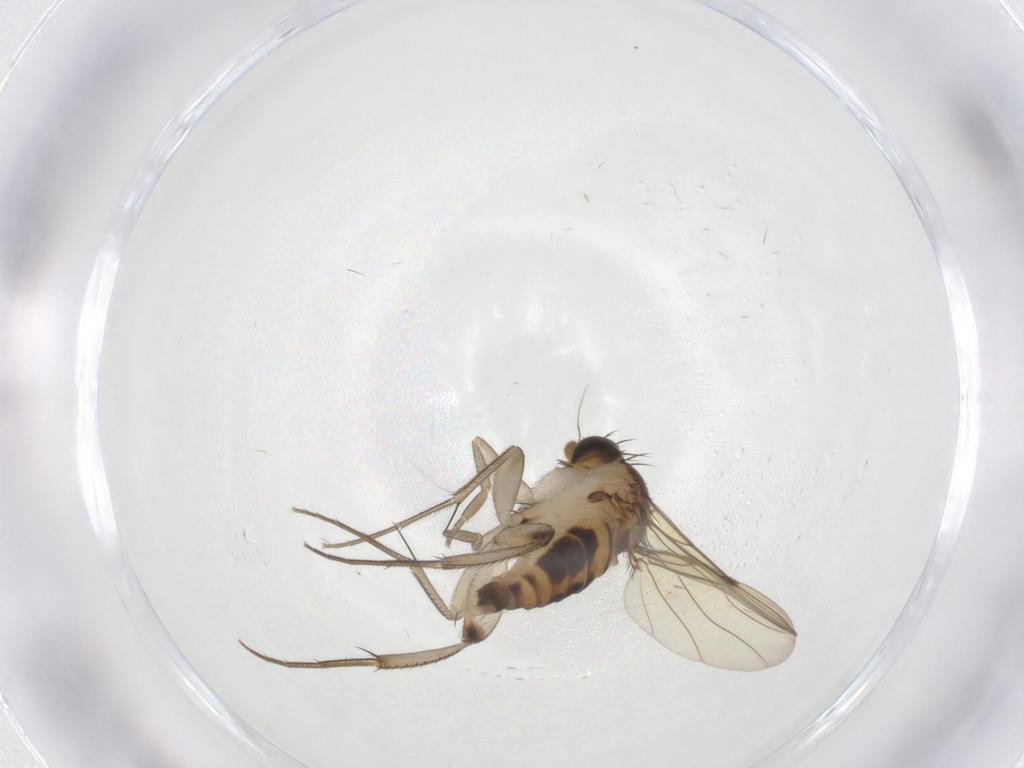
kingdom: Animalia
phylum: Arthropoda
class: Insecta
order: Diptera
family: Phoridae
